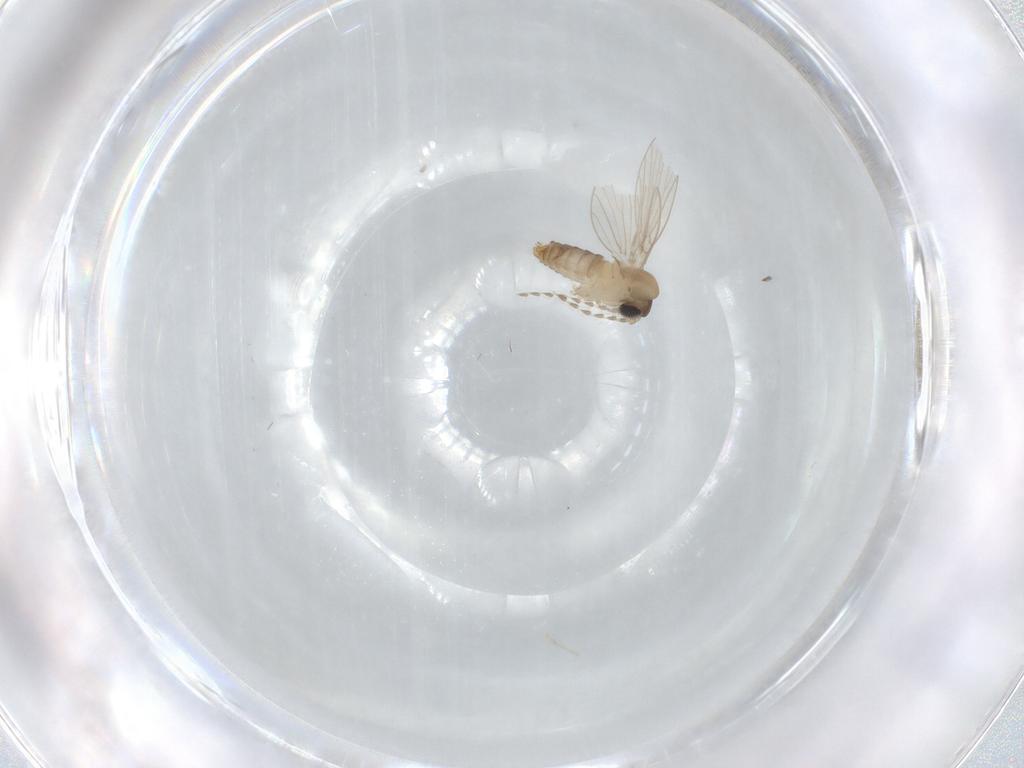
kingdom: Animalia
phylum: Arthropoda
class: Insecta
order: Diptera
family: Psychodidae
